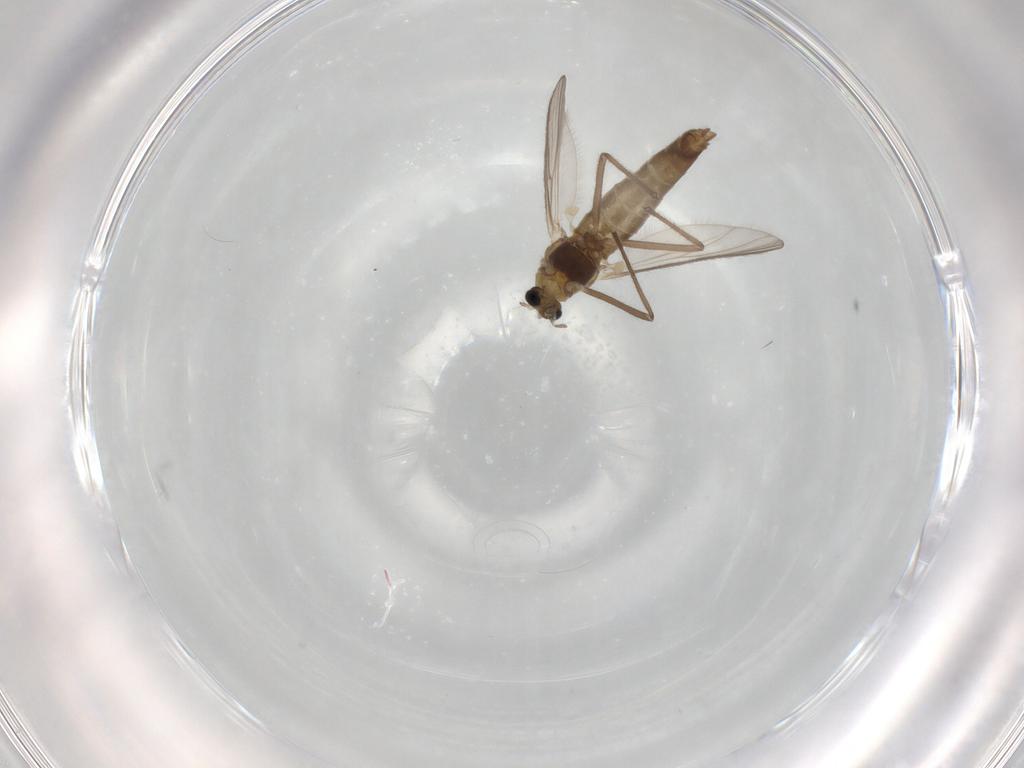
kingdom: Animalia
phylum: Arthropoda
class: Insecta
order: Diptera
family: Chironomidae
